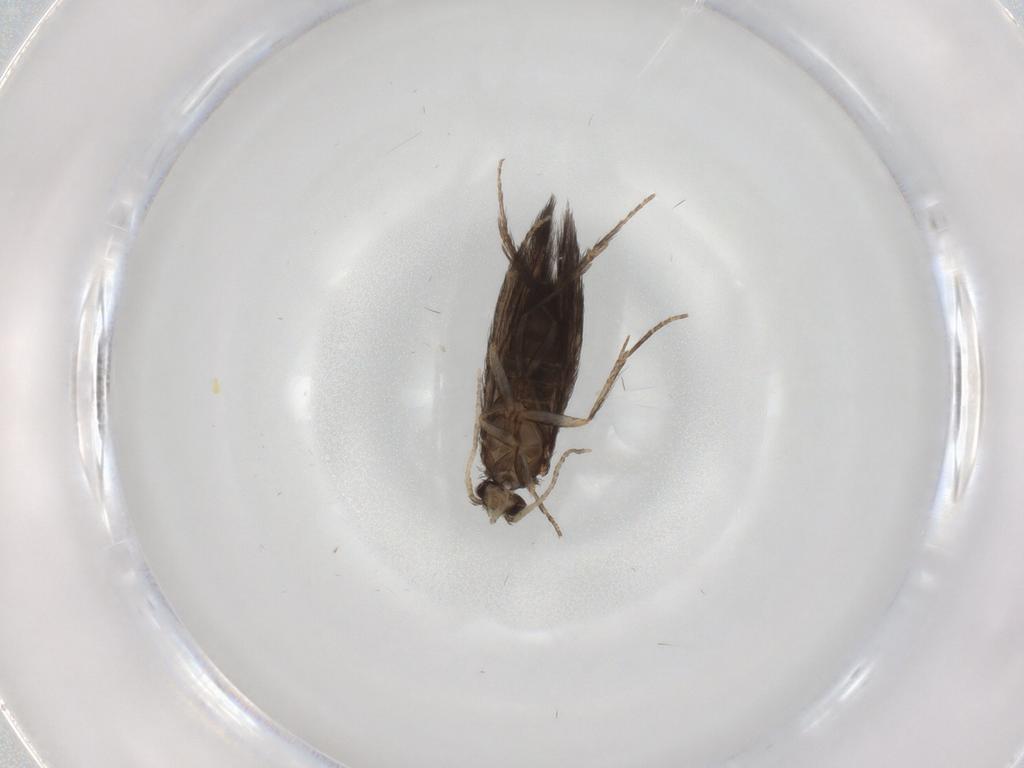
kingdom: Animalia
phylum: Arthropoda
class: Insecta
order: Trichoptera
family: Hydroptilidae
